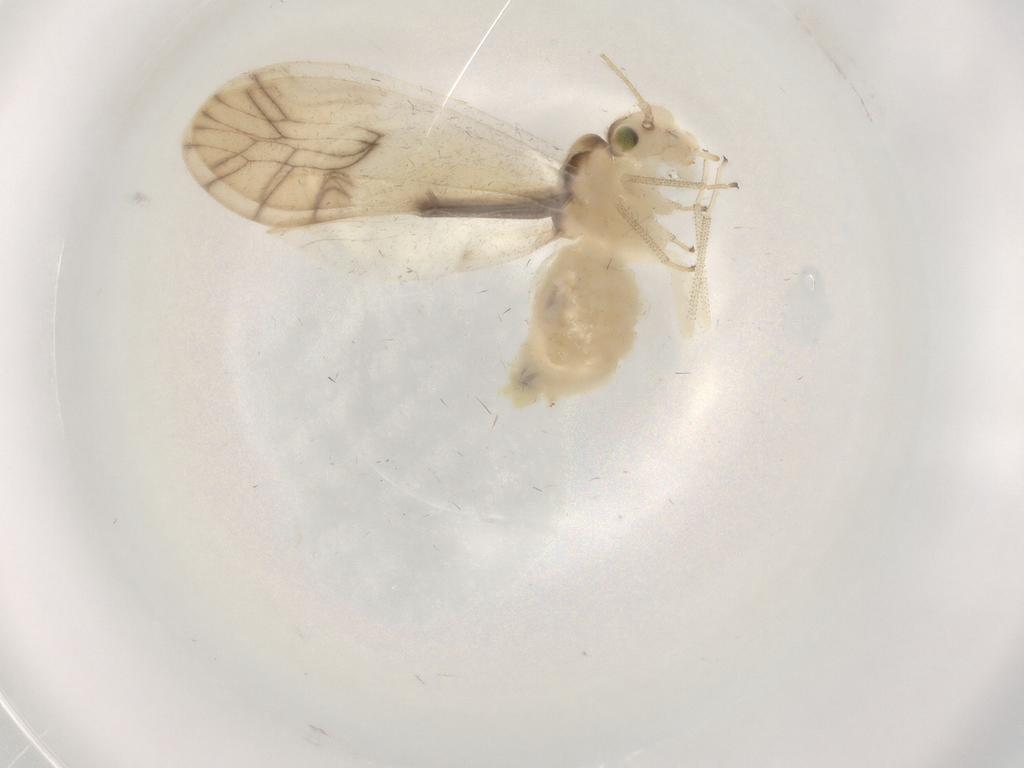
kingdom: Animalia
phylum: Arthropoda
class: Insecta
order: Psocodea
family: Caeciliusidae
